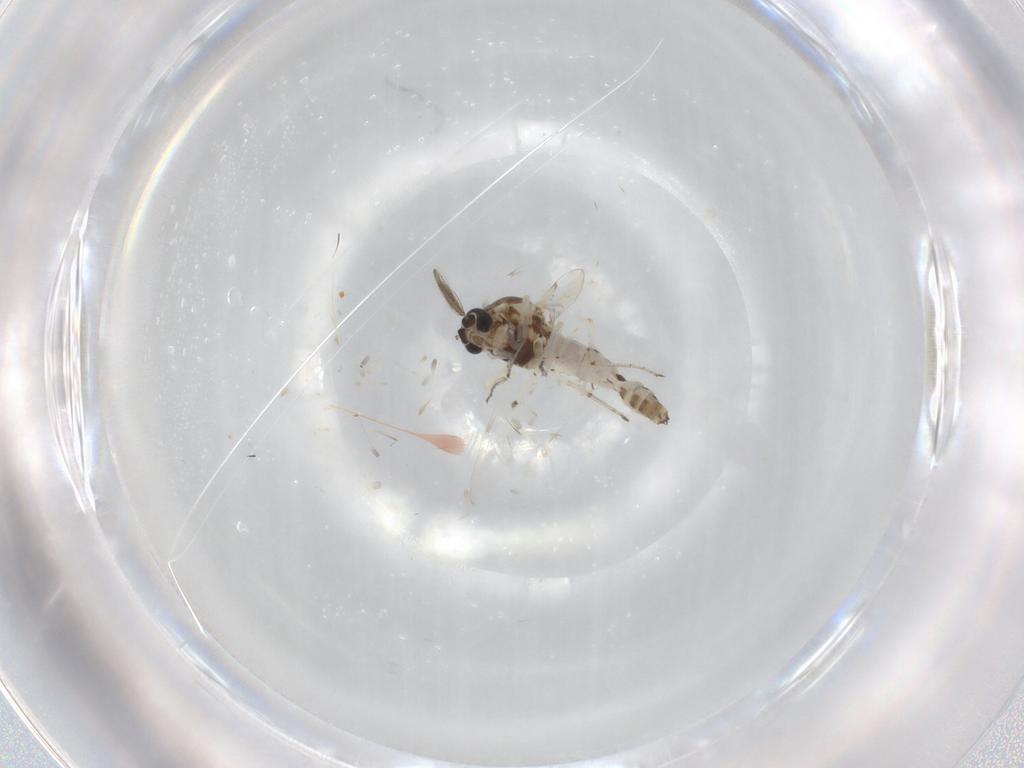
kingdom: Animalia
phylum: Arthropoda
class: Insecta
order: Diptera
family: Ceratopogonidae
